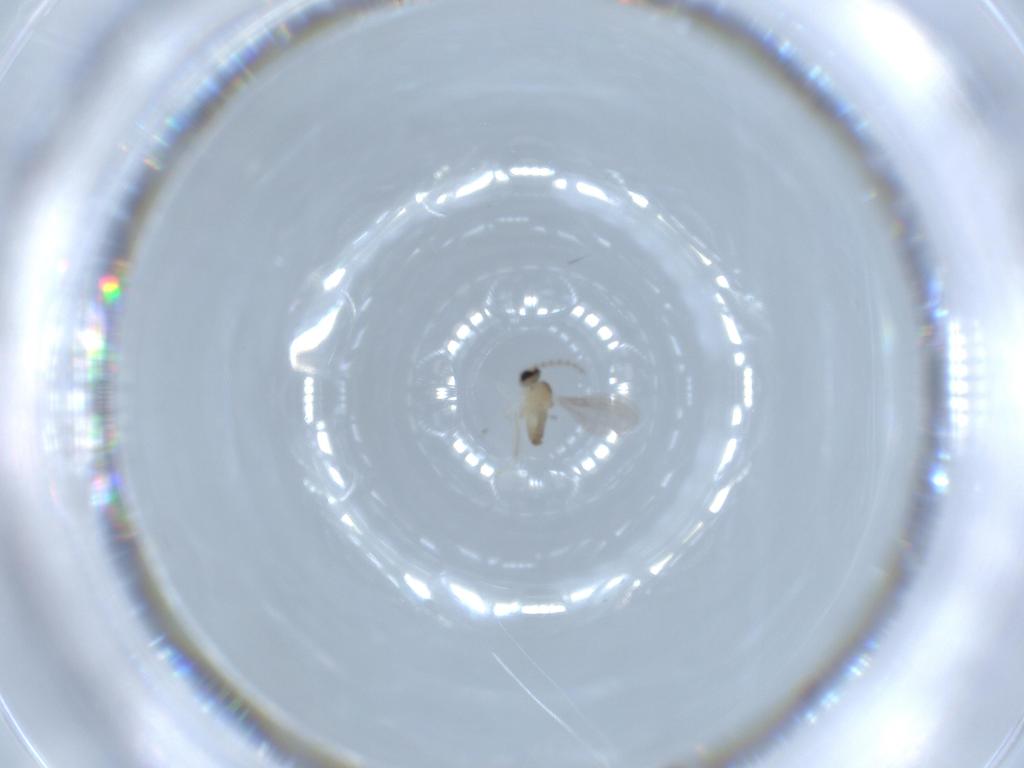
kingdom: Animalia
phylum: Arthropoda
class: Insecta
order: Diptera
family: Cecidomyiidae
